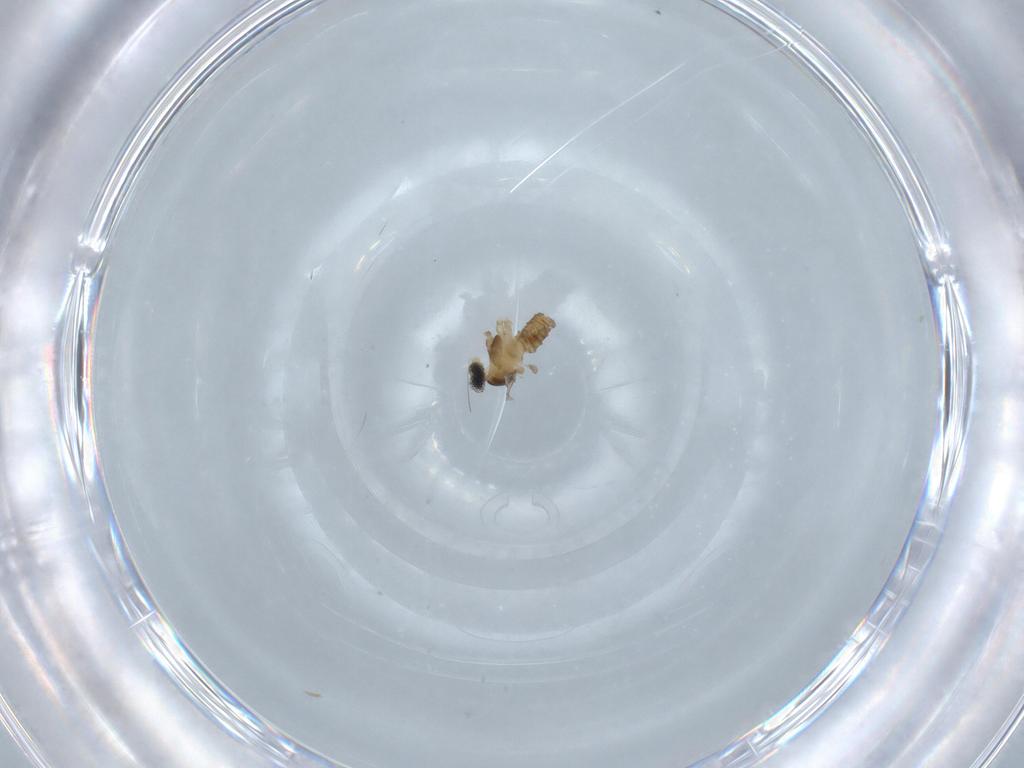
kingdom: Animalia
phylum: Arthropoda
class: Insecta
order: Diptera
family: Cecidomyiidae
